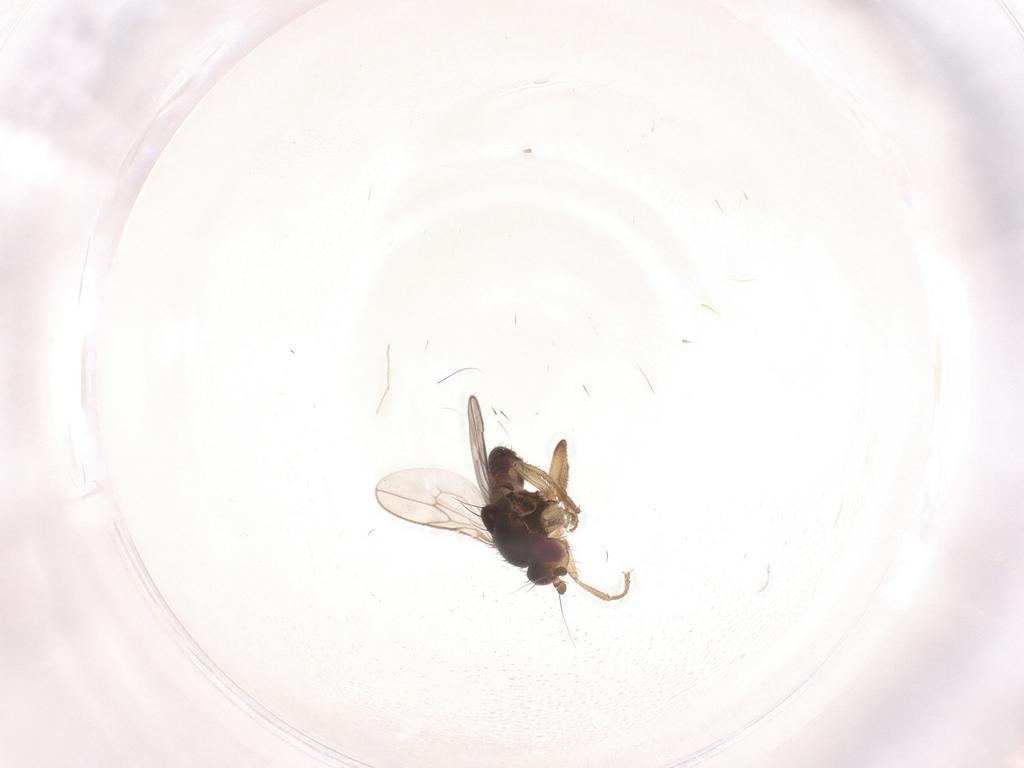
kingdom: Animalia
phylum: Arthropoda
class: Insecta
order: Diptera
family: Sphaeroceridae
